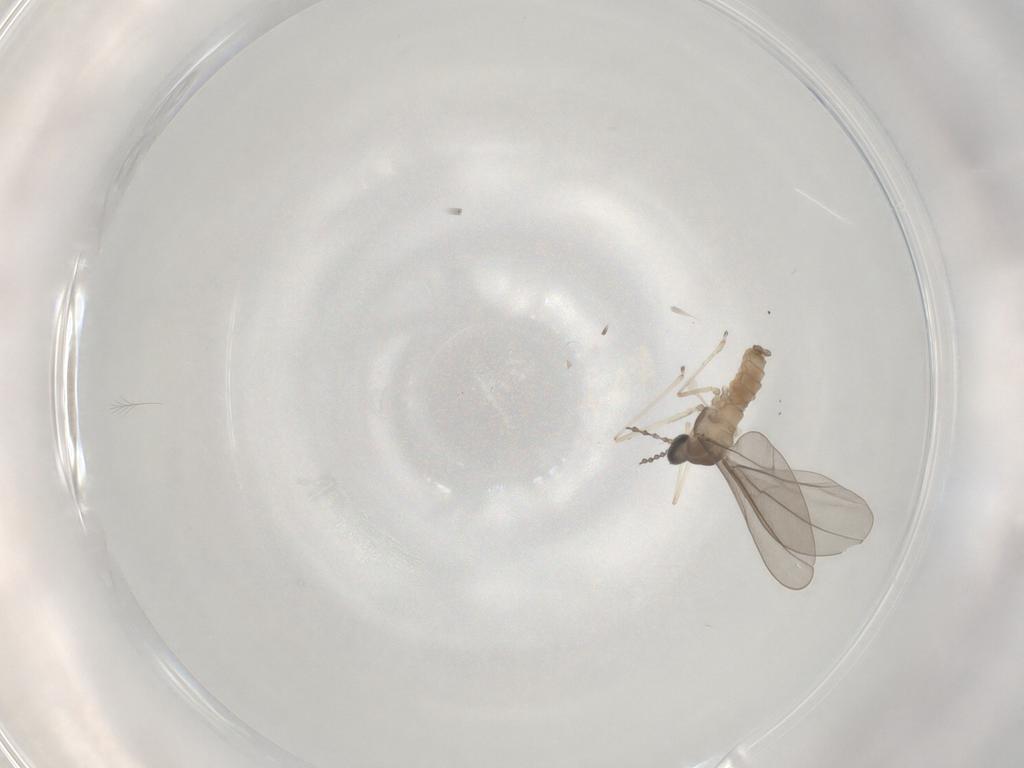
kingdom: Animalia
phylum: Arthropoda
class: Insecta
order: Diptera
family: Cecidomyiidae
